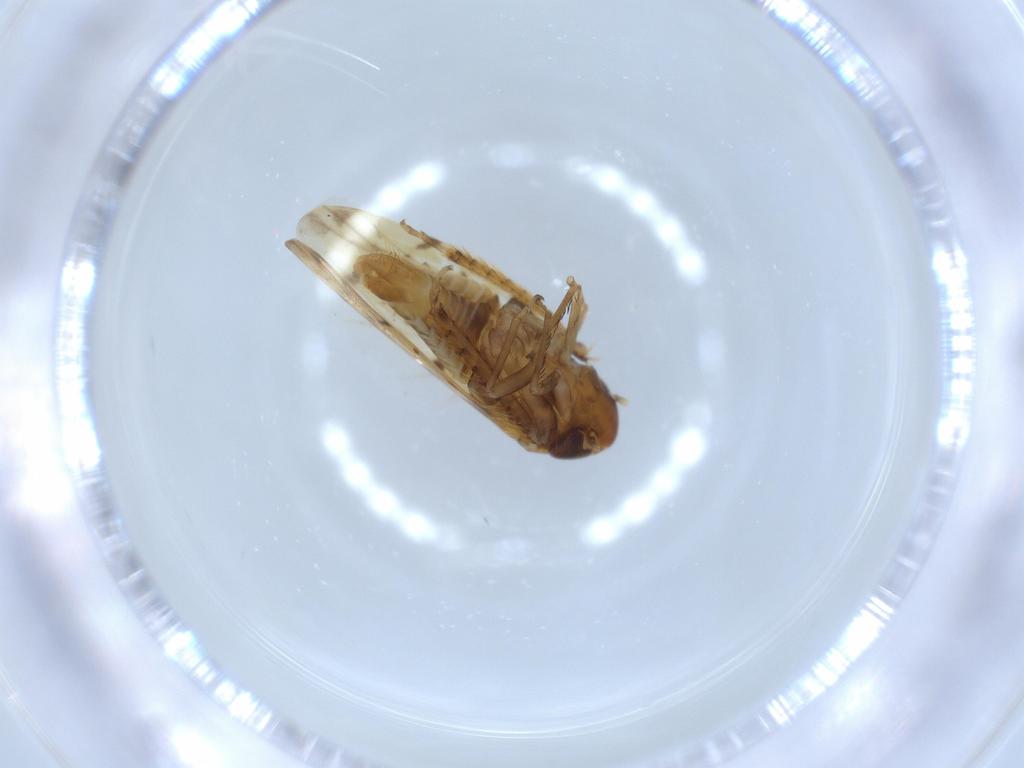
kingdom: Animalia
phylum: Arthropoda
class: Insecta
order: Hemiptera
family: Cicadellidae
